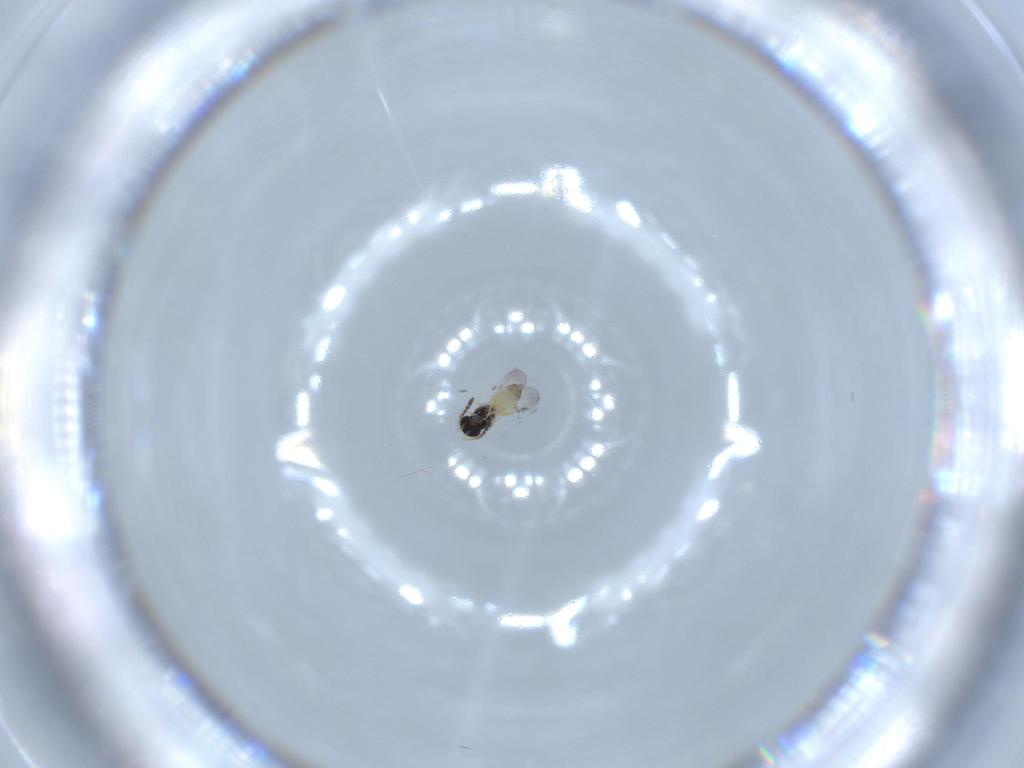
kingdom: Animalia
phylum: Arthropoda
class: Insecta
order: Hymenoptera
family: Ceraphronidae
